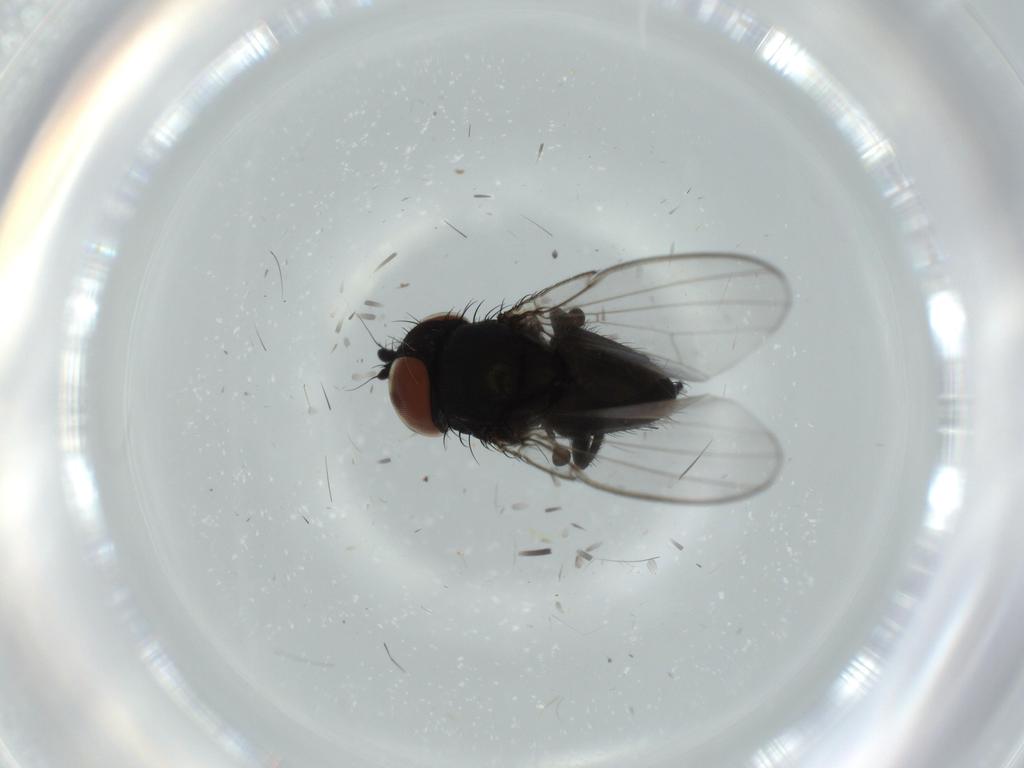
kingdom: Animalia
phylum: Arthropoda
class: Insecta
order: Diptera
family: Milichiidae
